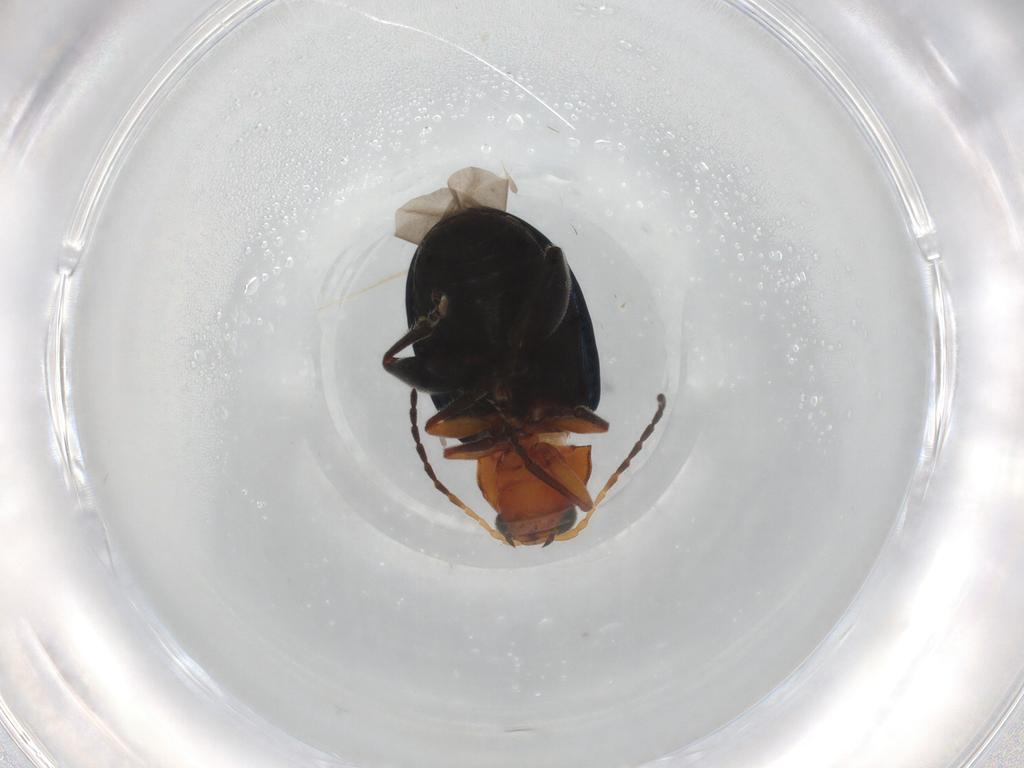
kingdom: Animalia
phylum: Arthropoda
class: Insecta
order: Coleoptera
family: Chrysomelidae
